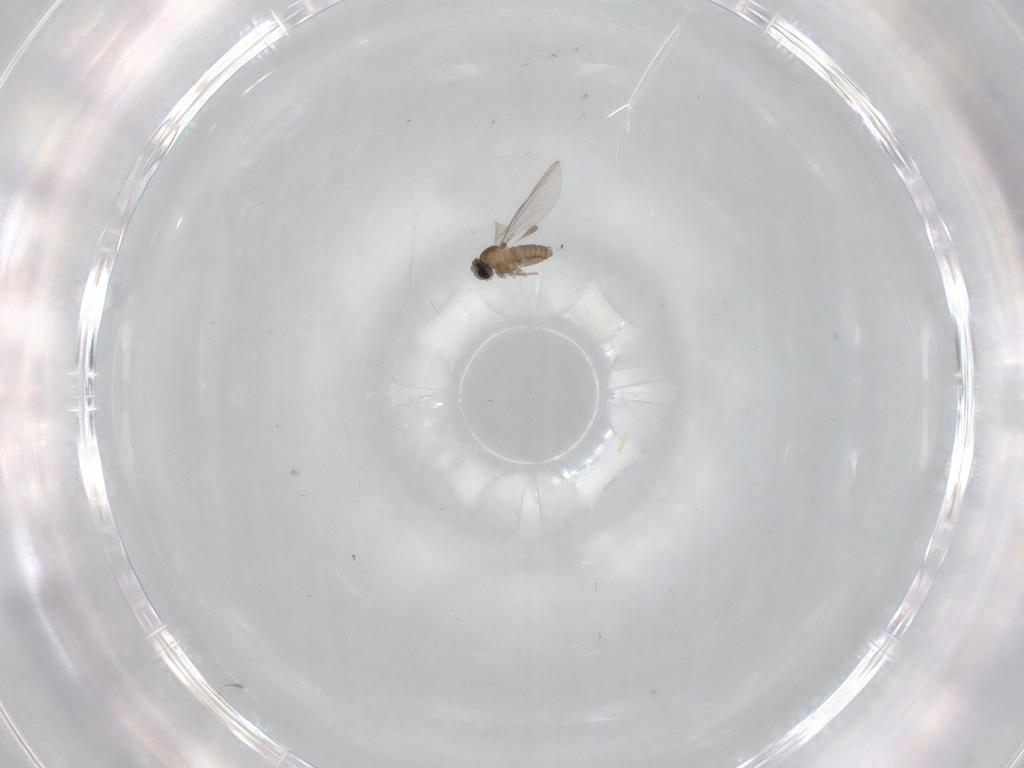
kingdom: Animalia
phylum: Arthropoda
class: Insecta
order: Diptera
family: Cecidomyiidae
